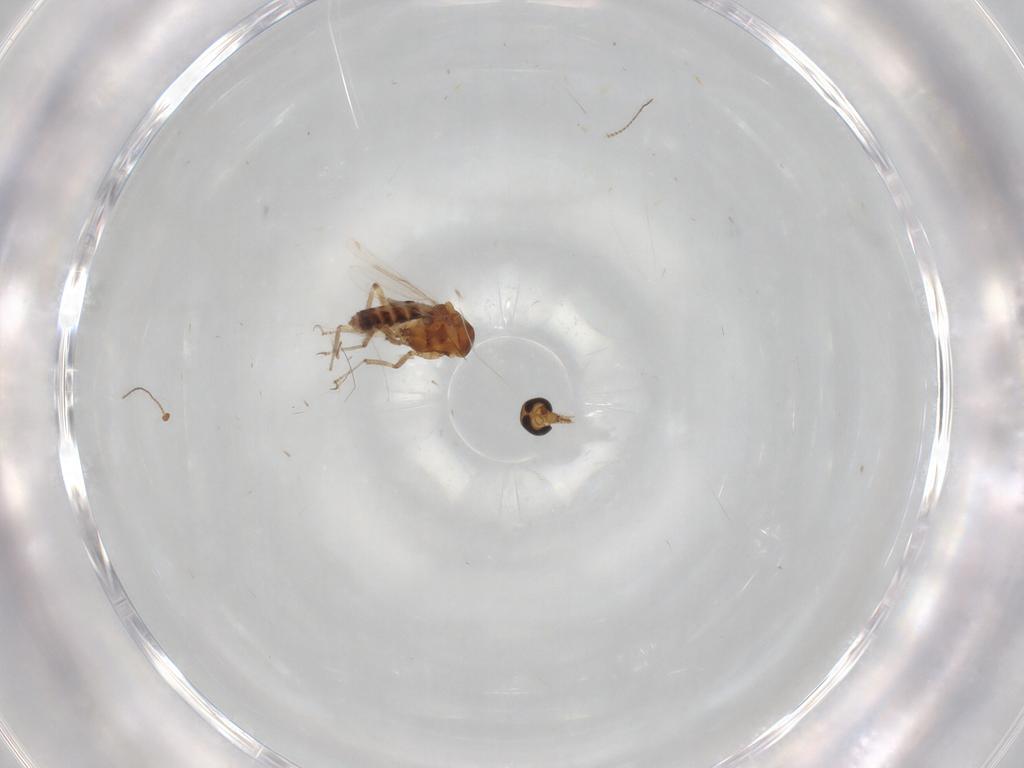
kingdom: Animalia
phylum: Arthropoda
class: Insecta
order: Diptera
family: Chironomidae
